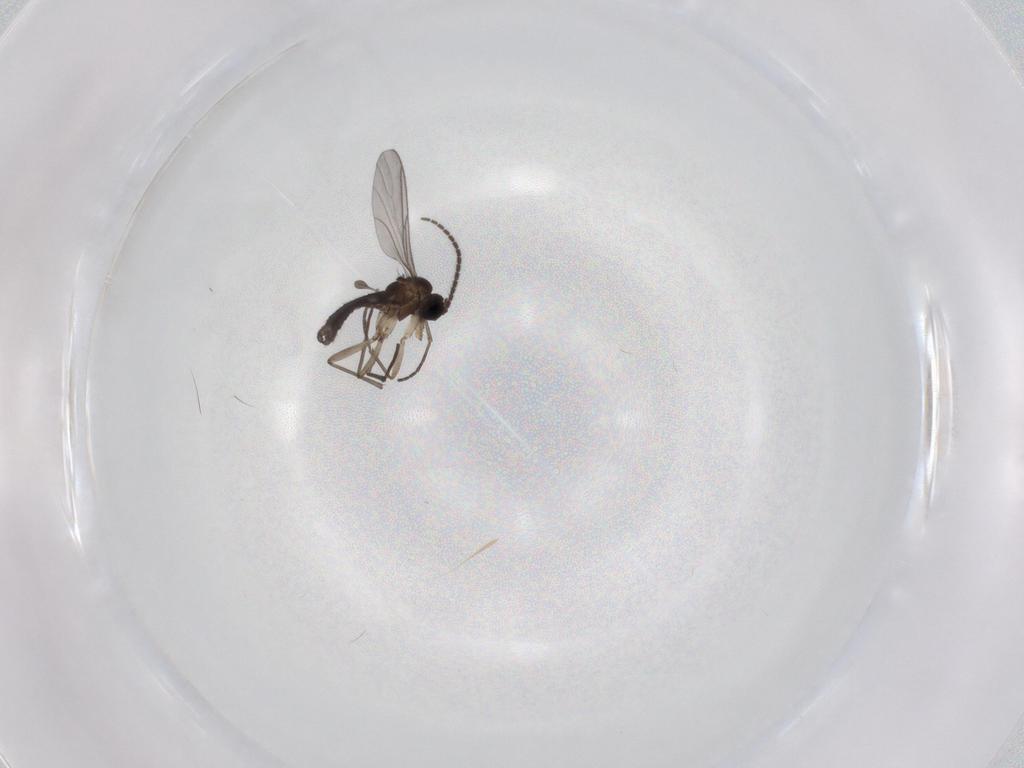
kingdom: Animalia
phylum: Arthropoda
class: Insecta
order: Diptera
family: Sciaridae
